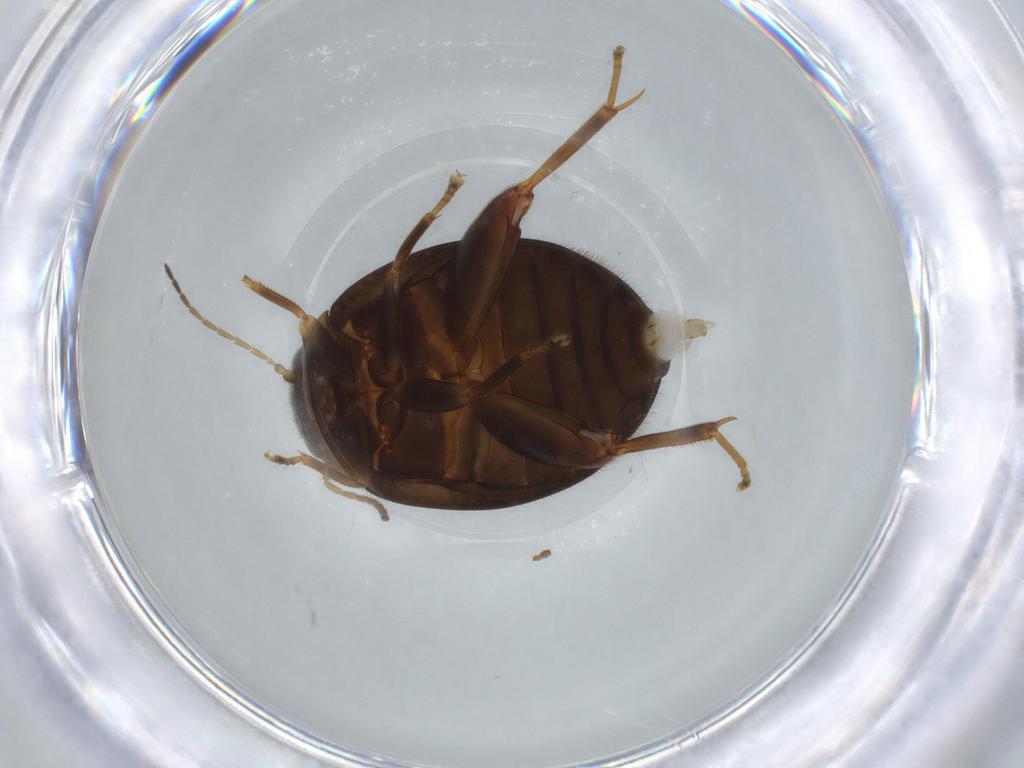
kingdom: Animalia
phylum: Arthropoda
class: Insecta
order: Coleoptera
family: Scirtidae
